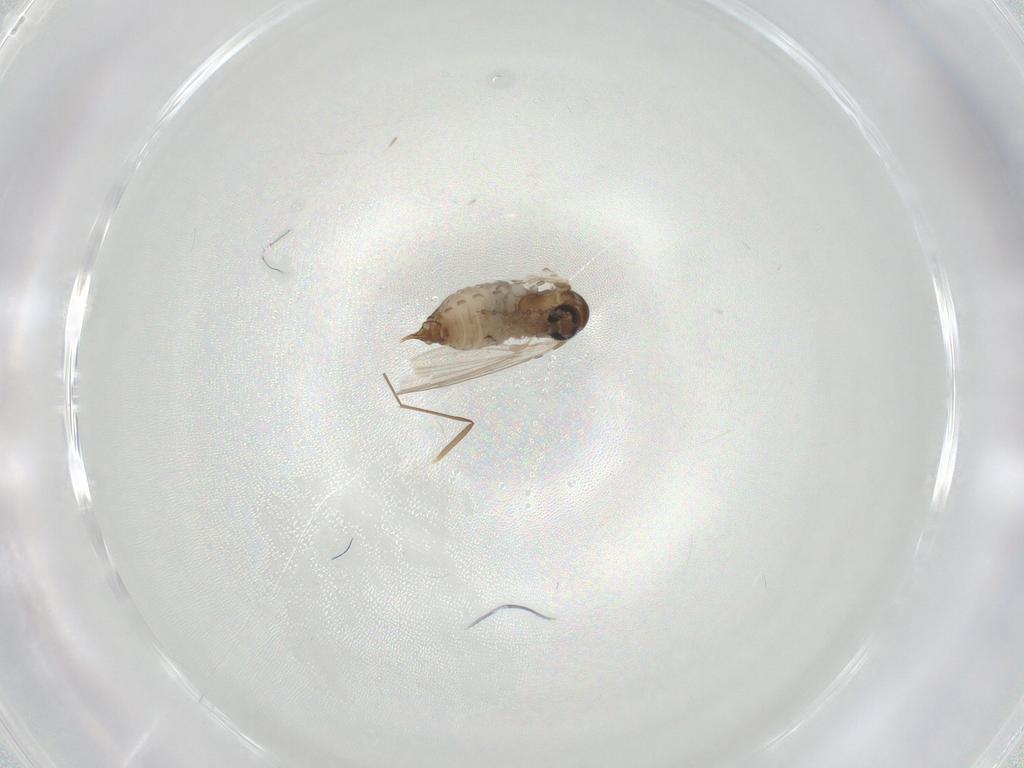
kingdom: Animalia
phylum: Arthropoda
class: Insecta
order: Diptera
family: Psychodidae
